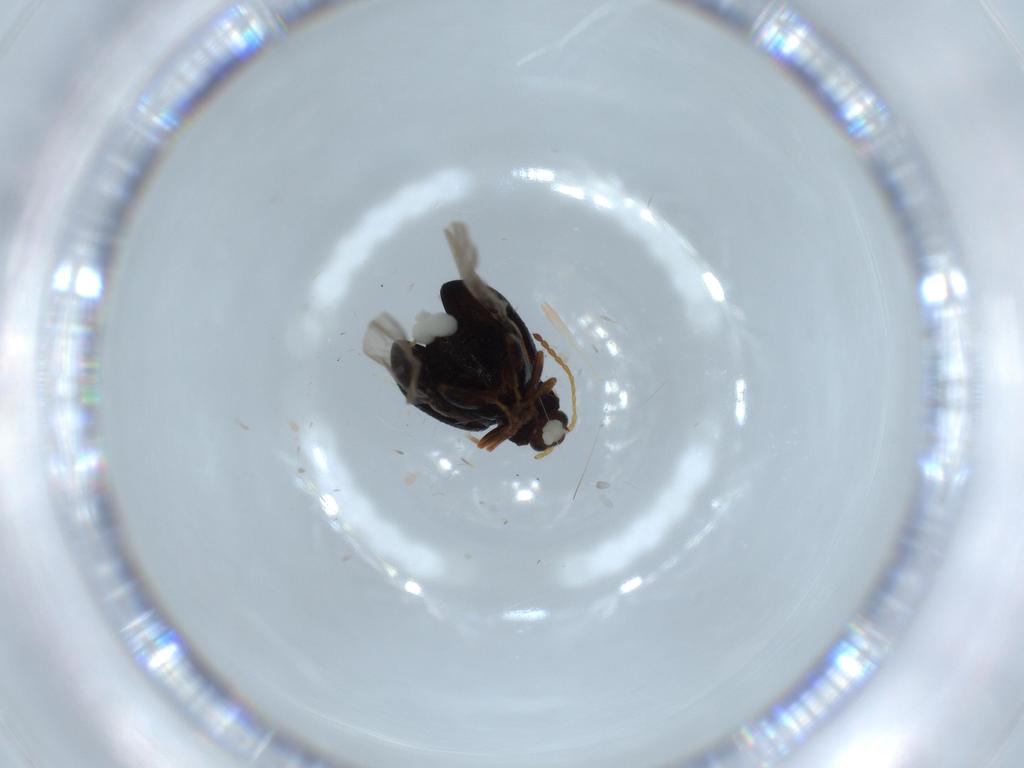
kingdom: Animalia
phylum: Arthropoda
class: Insecta
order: Coleoptera
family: Chrysomelidae
